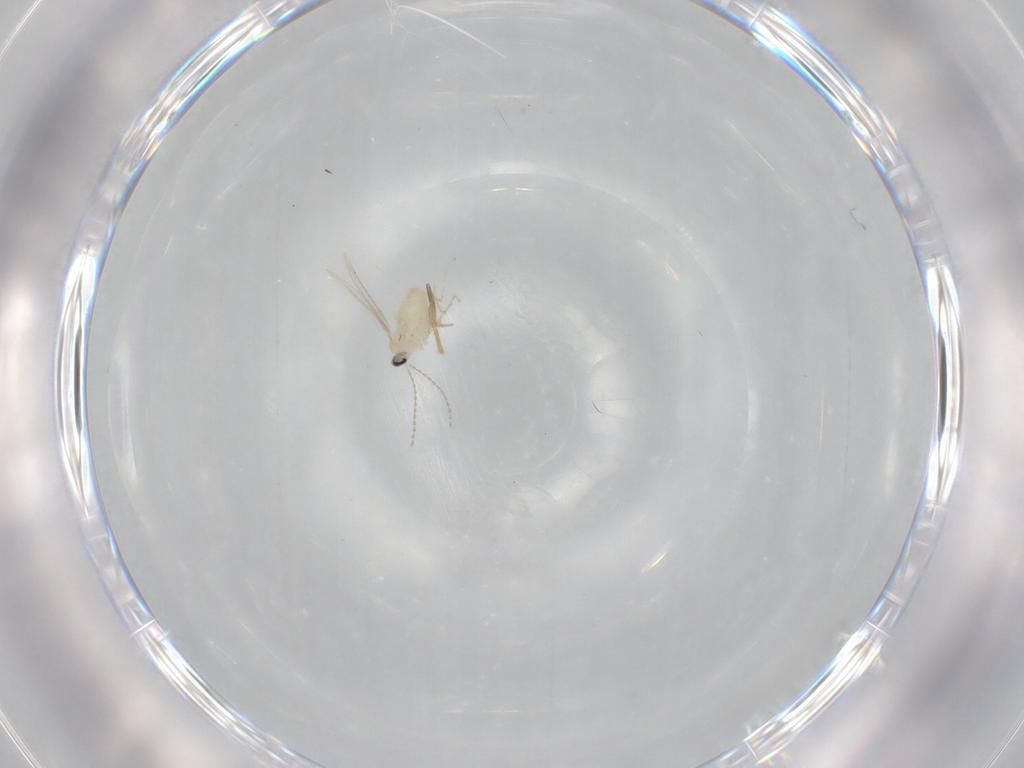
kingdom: Animalia
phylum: Arthropoda
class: Insecta
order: Diptera
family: Cecidomyiidae
